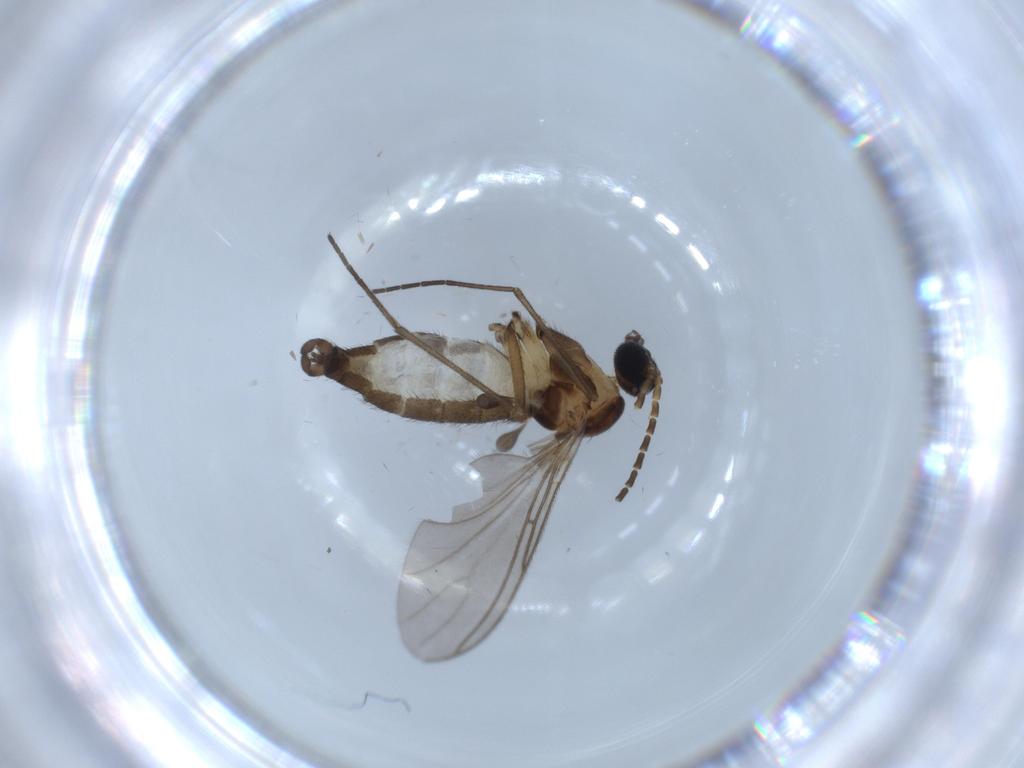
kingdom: Animalia
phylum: Arthropoda
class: Insecta
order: Diptera
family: Sciaridae
